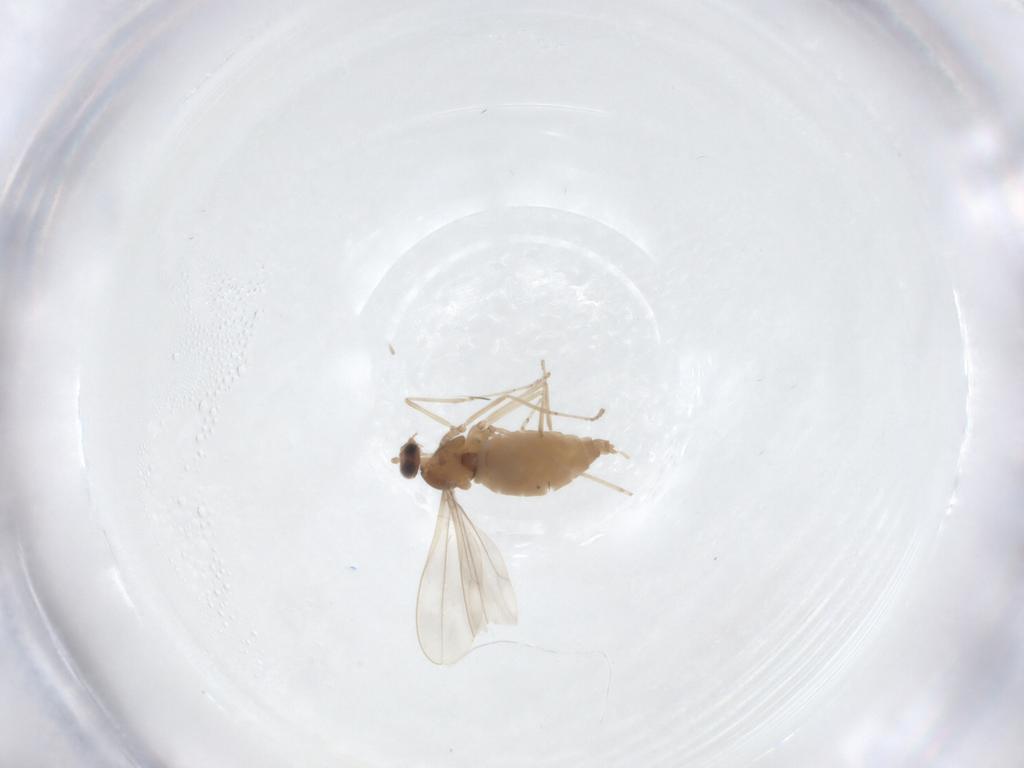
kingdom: Animalia
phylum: Arthropoda
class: Insecta
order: Diptera
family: Cecidomyiidae
